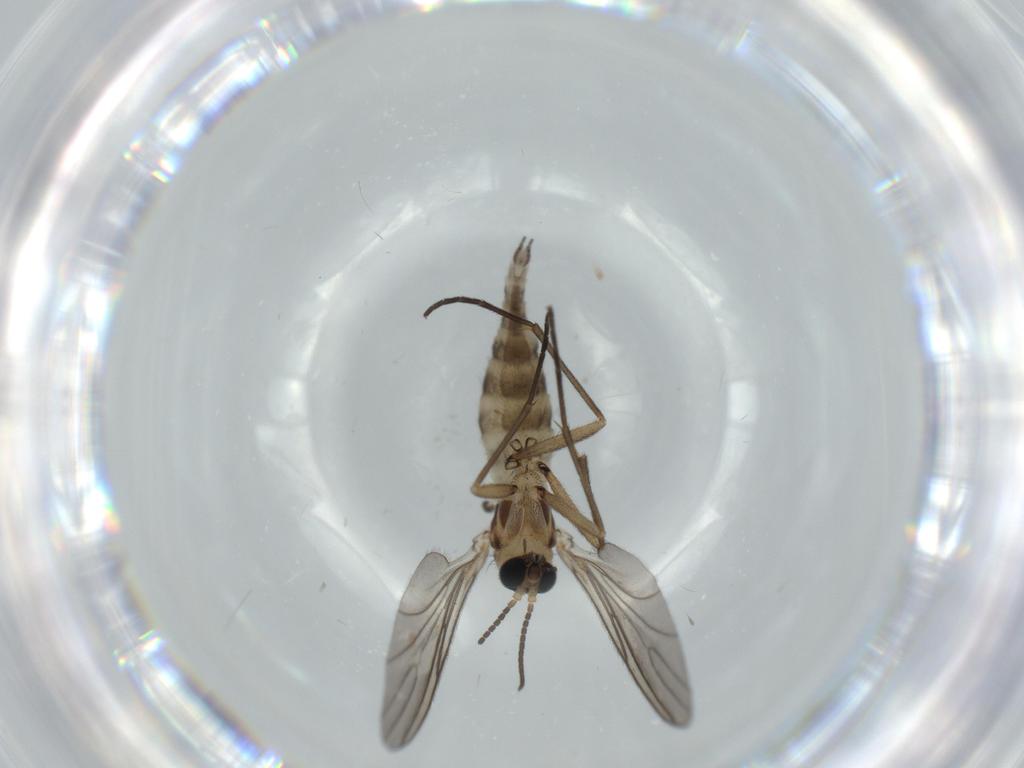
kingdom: Animalia
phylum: Arthropoda
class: Insecta
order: Diptera
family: Sciaridae
